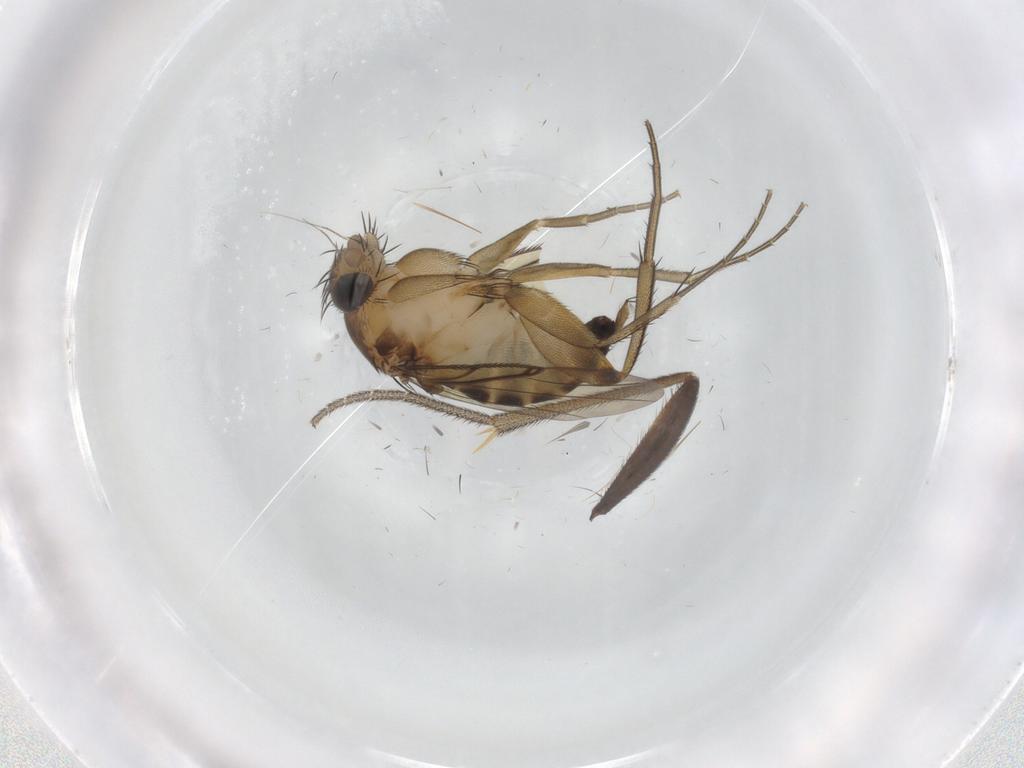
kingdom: Animalia
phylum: Arthropoda
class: Insecta
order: Diptera
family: Phoridae
